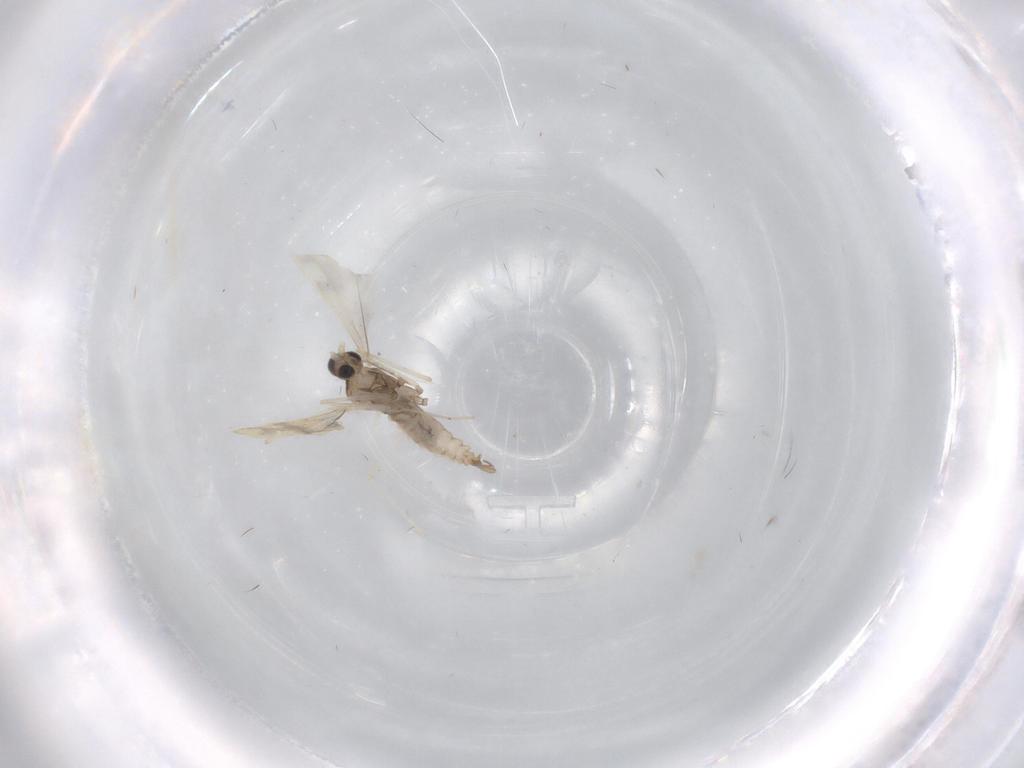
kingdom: Animalia
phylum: Arthropoda
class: Insecta
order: Diptera
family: Cecidomyiidae
